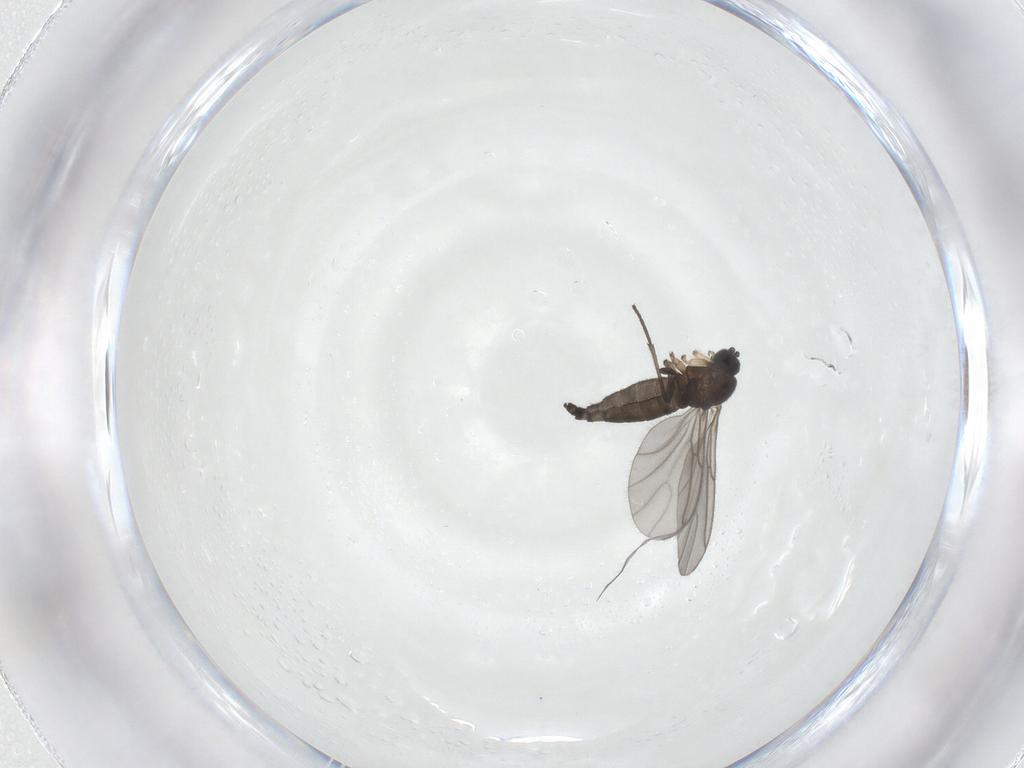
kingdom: Animalia
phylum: Arthropoda
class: Insecta
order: Diptera
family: Sciaridae
